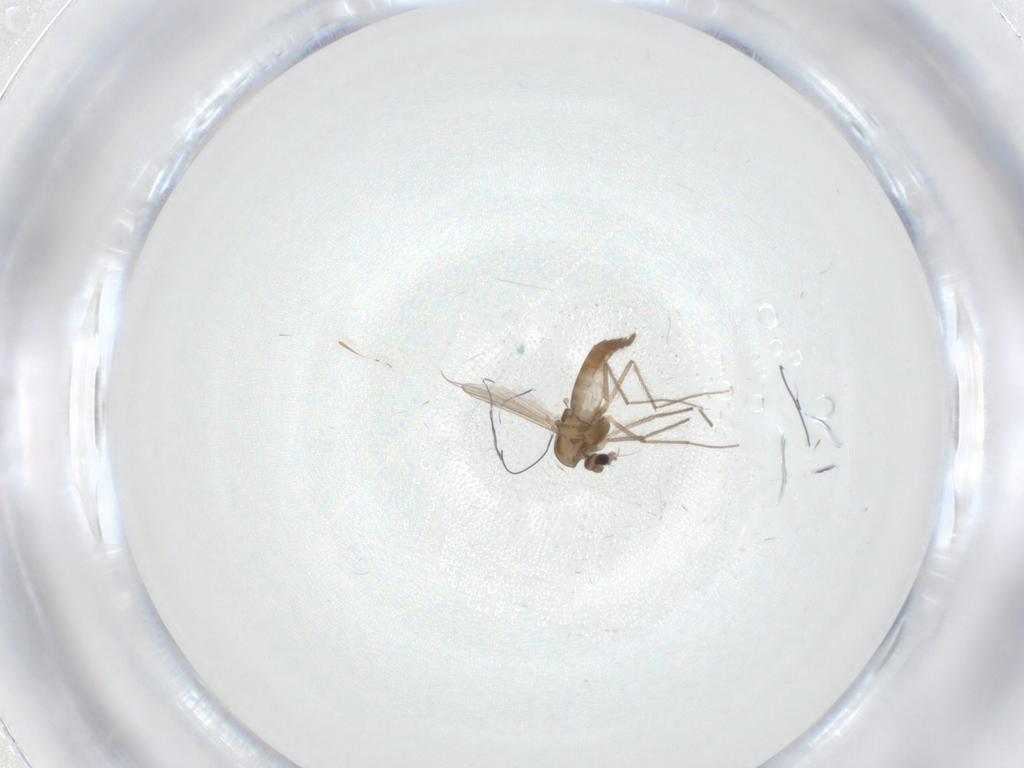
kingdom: Animalia
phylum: Arthropoda
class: Insecta
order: Diptera
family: Chironomidae
